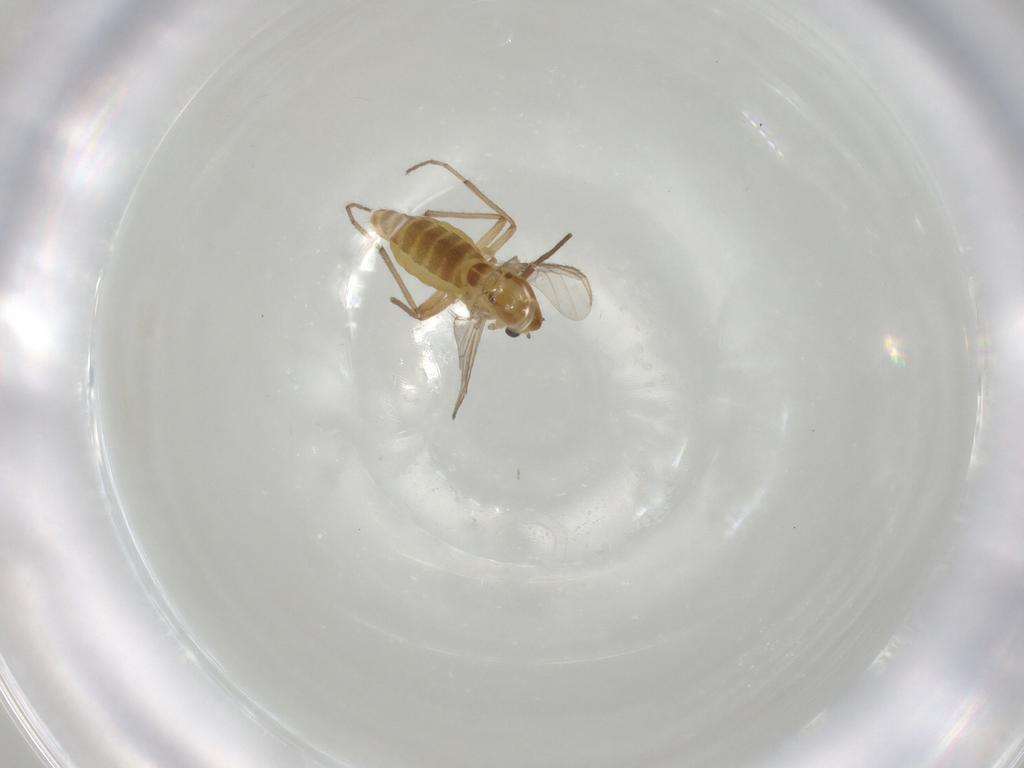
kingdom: Animalia
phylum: Arthropoda
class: Insecta
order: Diptera
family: Chironomidae
